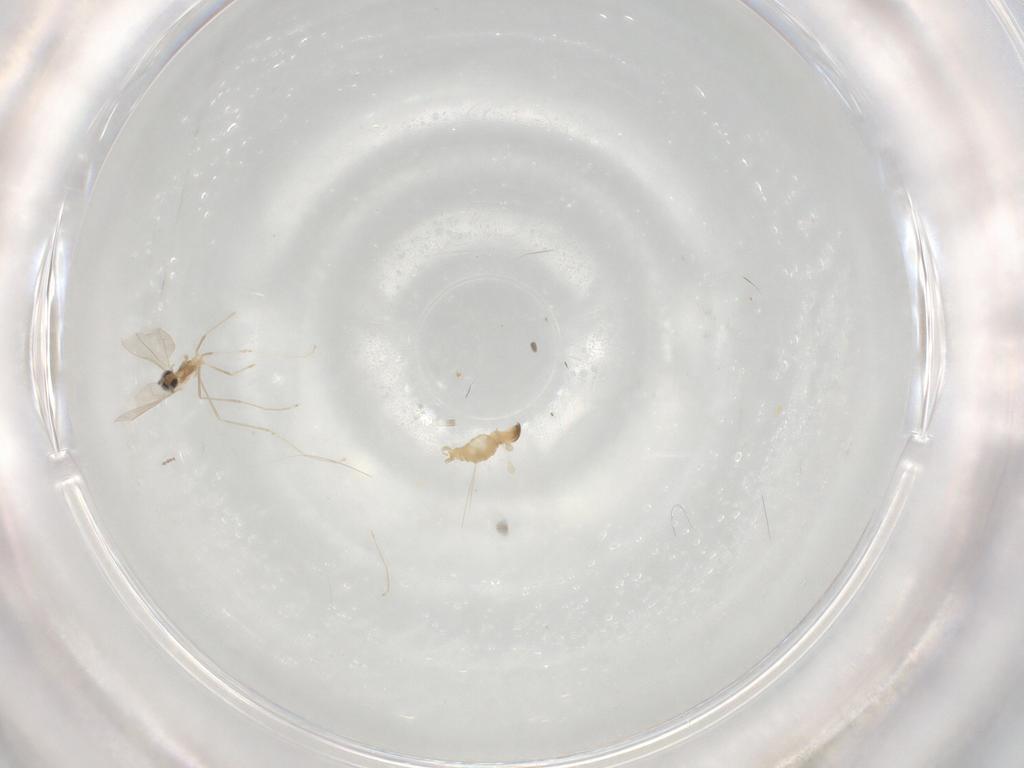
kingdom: Animalia
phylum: Arthropoda
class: Insecta
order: Diptera
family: Cecidomyiidae
